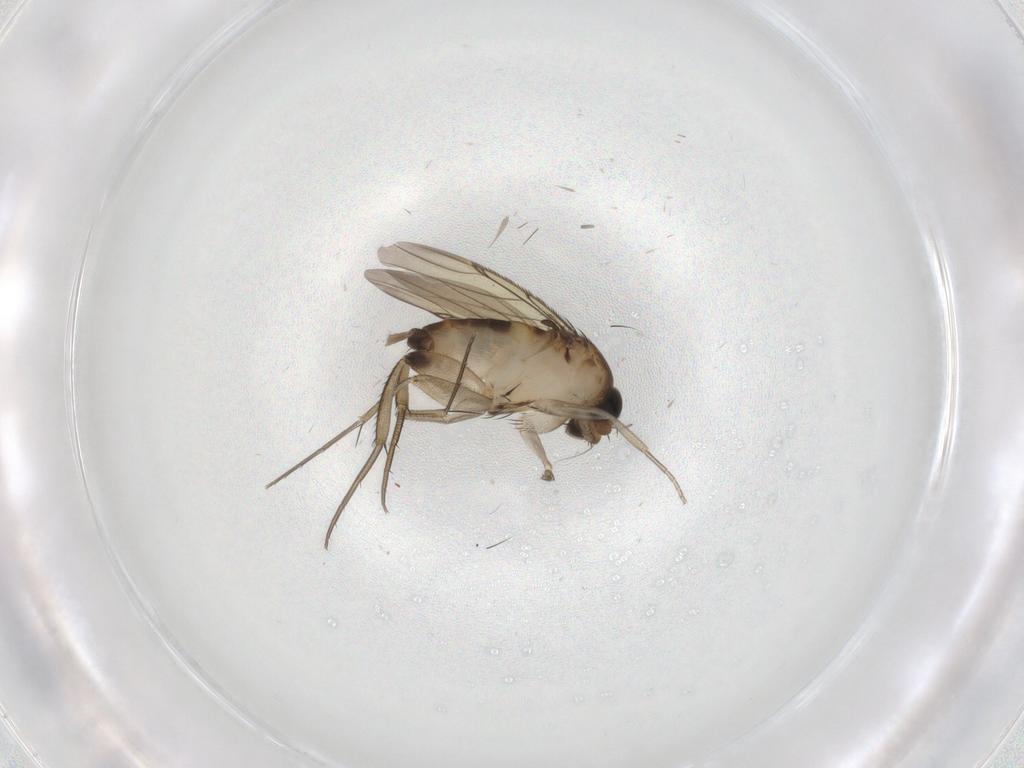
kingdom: Animalia
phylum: Arthropoda
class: Insecta
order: Diptera
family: Phoridae
